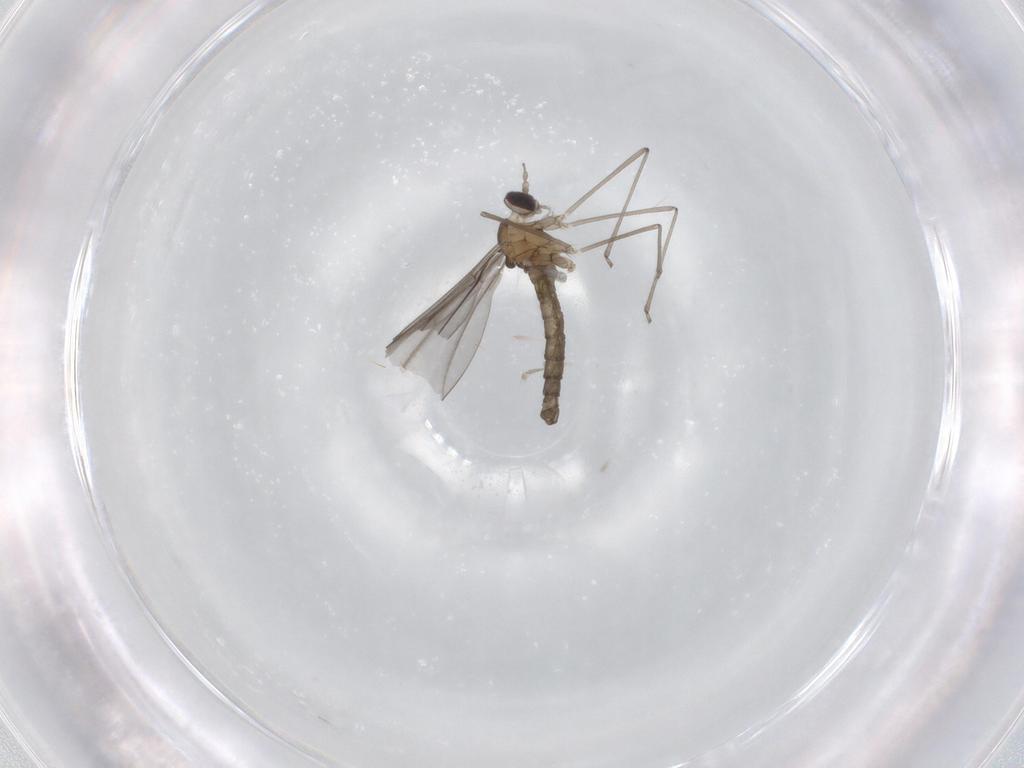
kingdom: Animalia
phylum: Arthropoda
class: Insecta
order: Diptera
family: Cecidomyiidae
